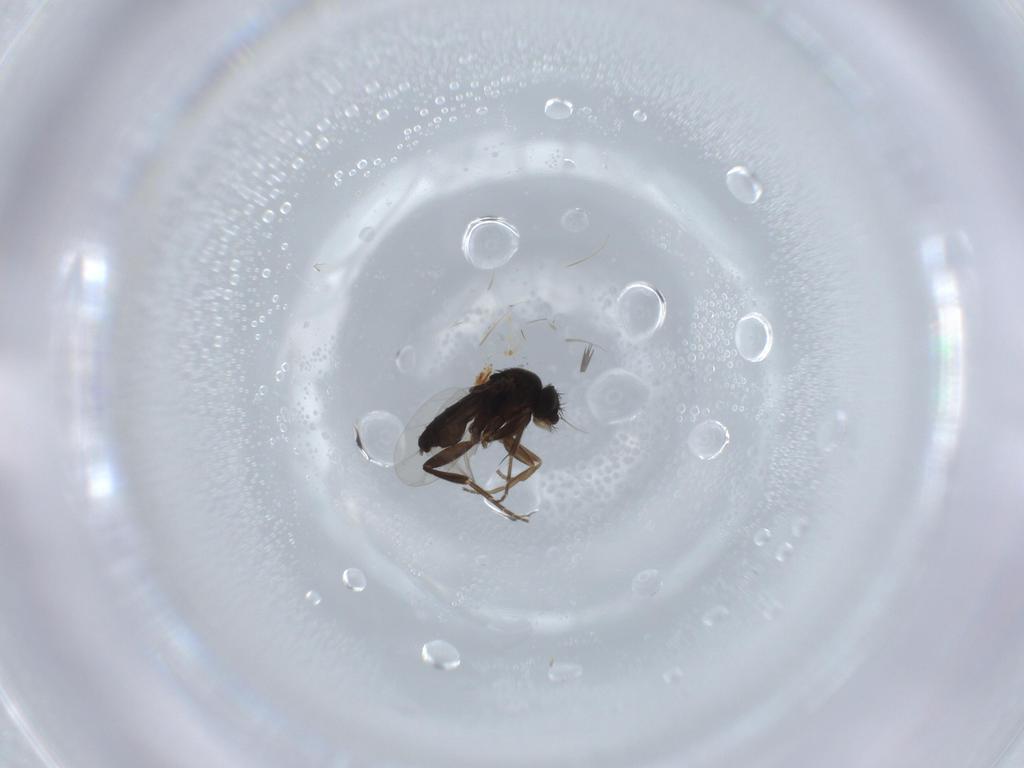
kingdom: Animalia
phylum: Arthropoda
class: Insecta
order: Diptera
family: Phoridae
